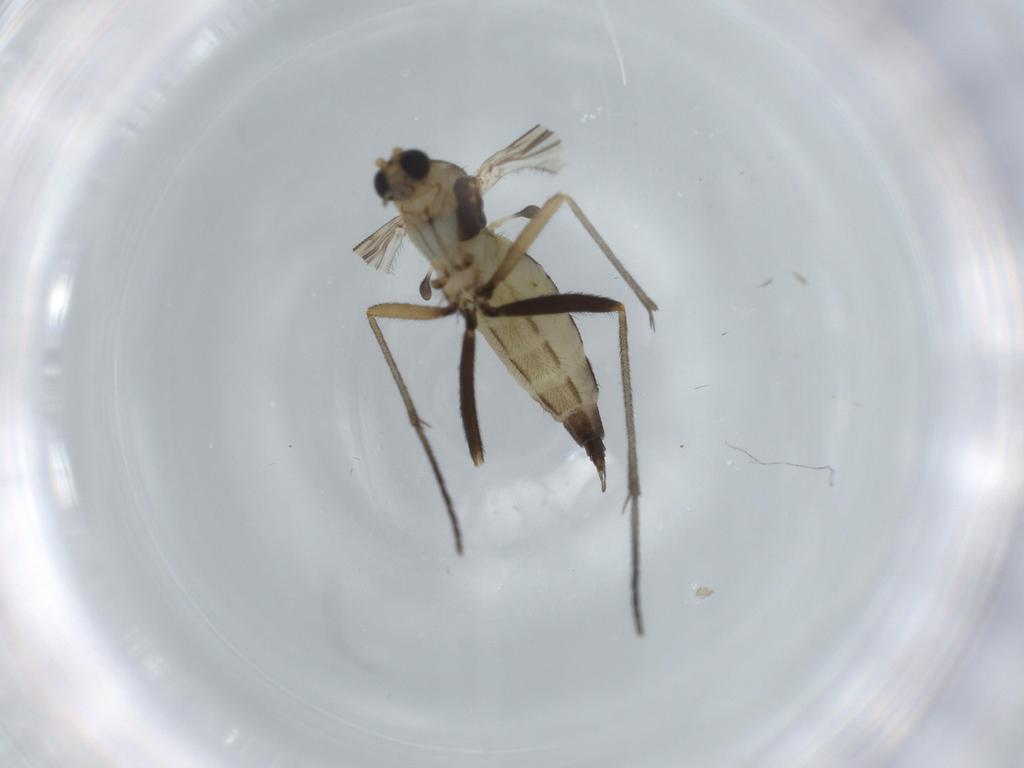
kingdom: Animalia
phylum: Arthropoda
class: Insecta
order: Diptera
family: Sciaridae
